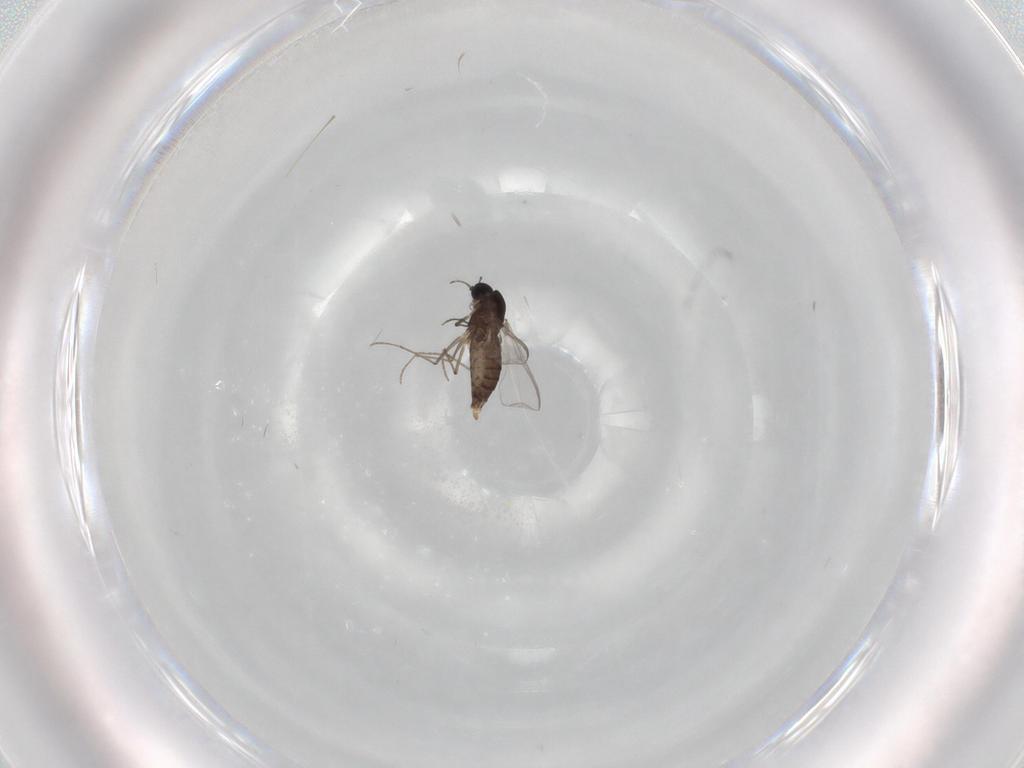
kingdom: Animalia
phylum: Arthropoda
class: Insecta
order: Diptera
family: Chironomidae
